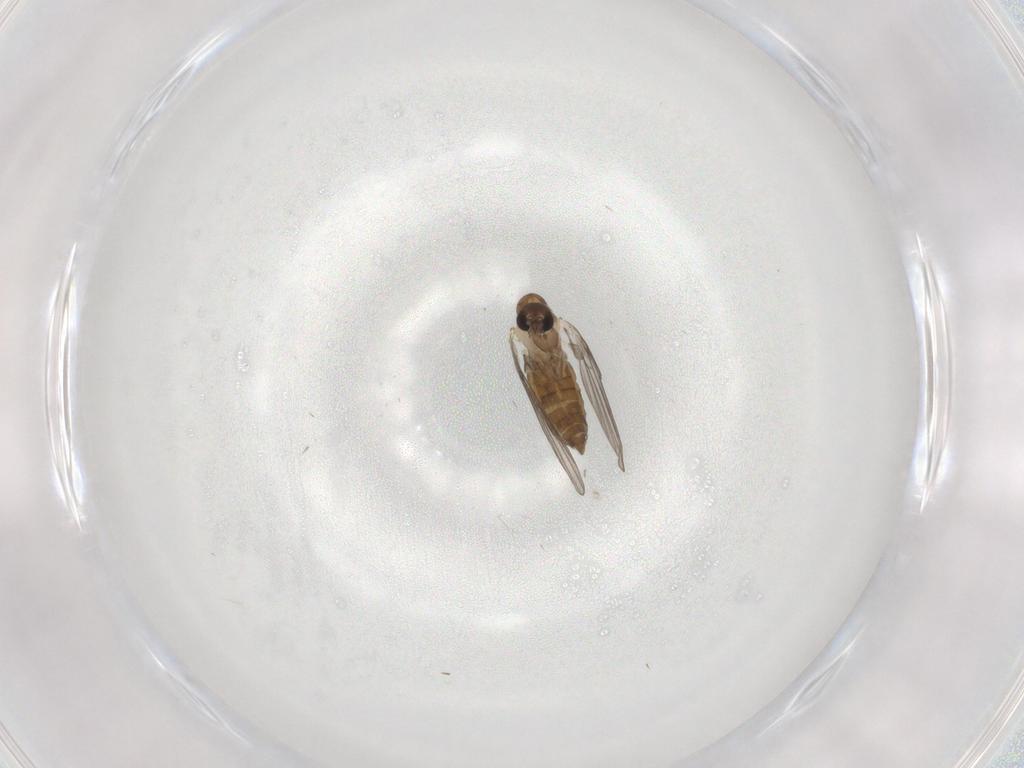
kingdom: Animalia
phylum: Arthropoda
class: Insecta
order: Diptera
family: Psychodidae
